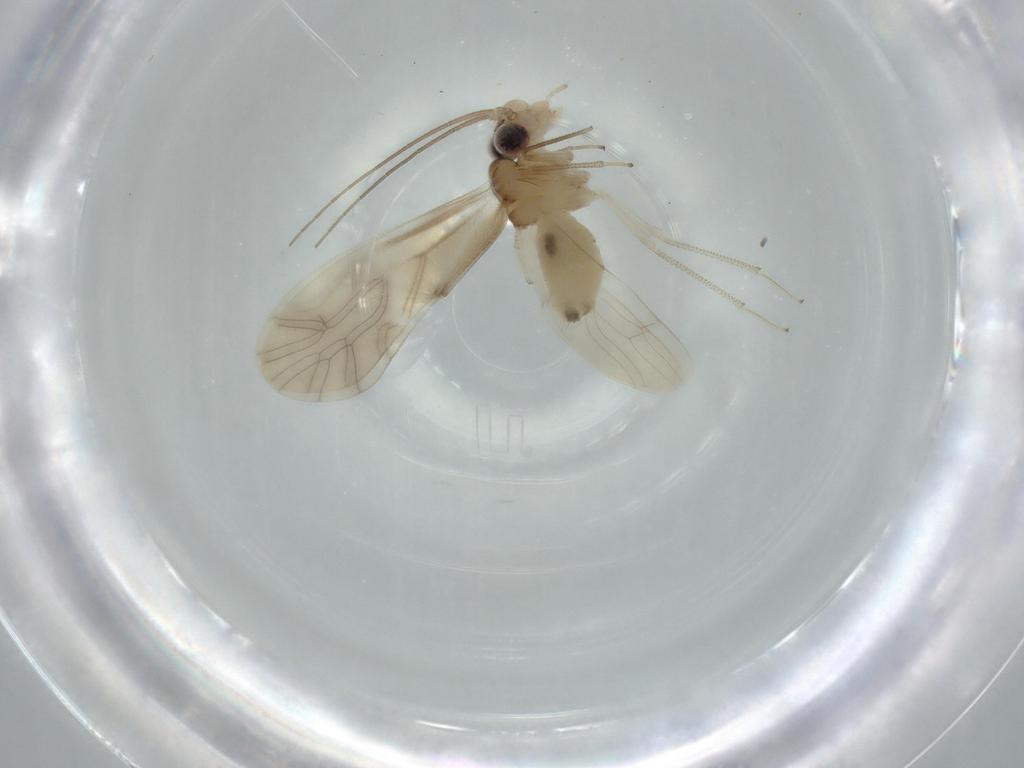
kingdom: Animalia
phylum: Arthropoda
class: Insecta
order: Psocodea
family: Caeciliusidae
